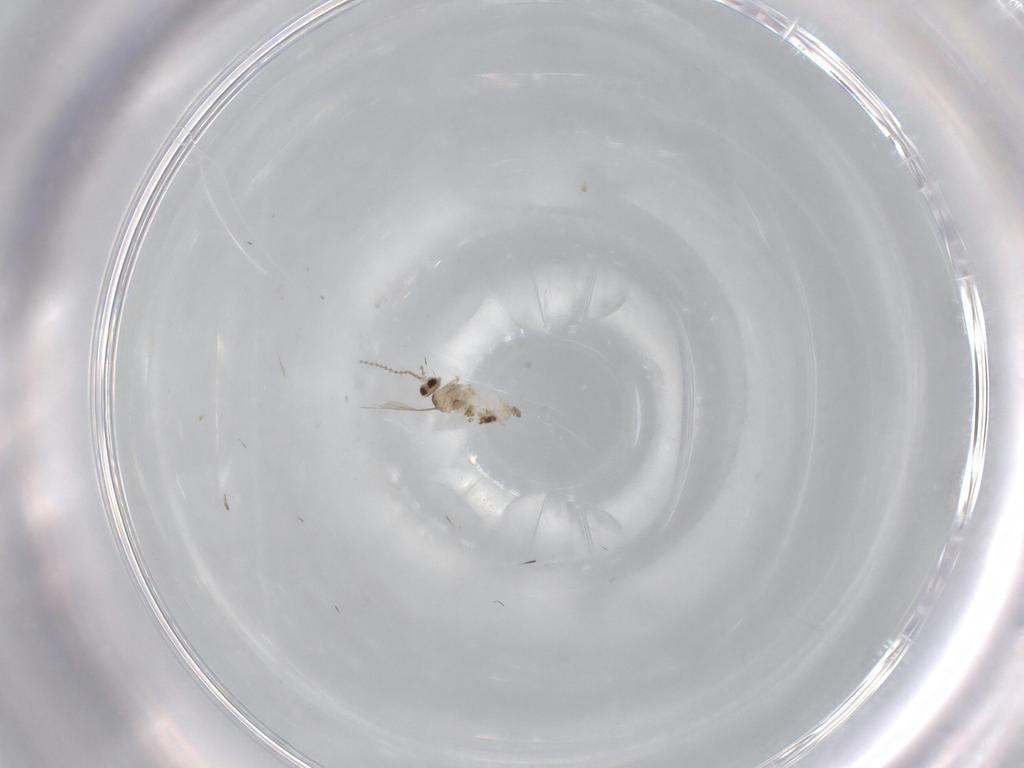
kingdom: Animalia
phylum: Arthropoda
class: Insecta
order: Diptera
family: Cecidomyiidae
